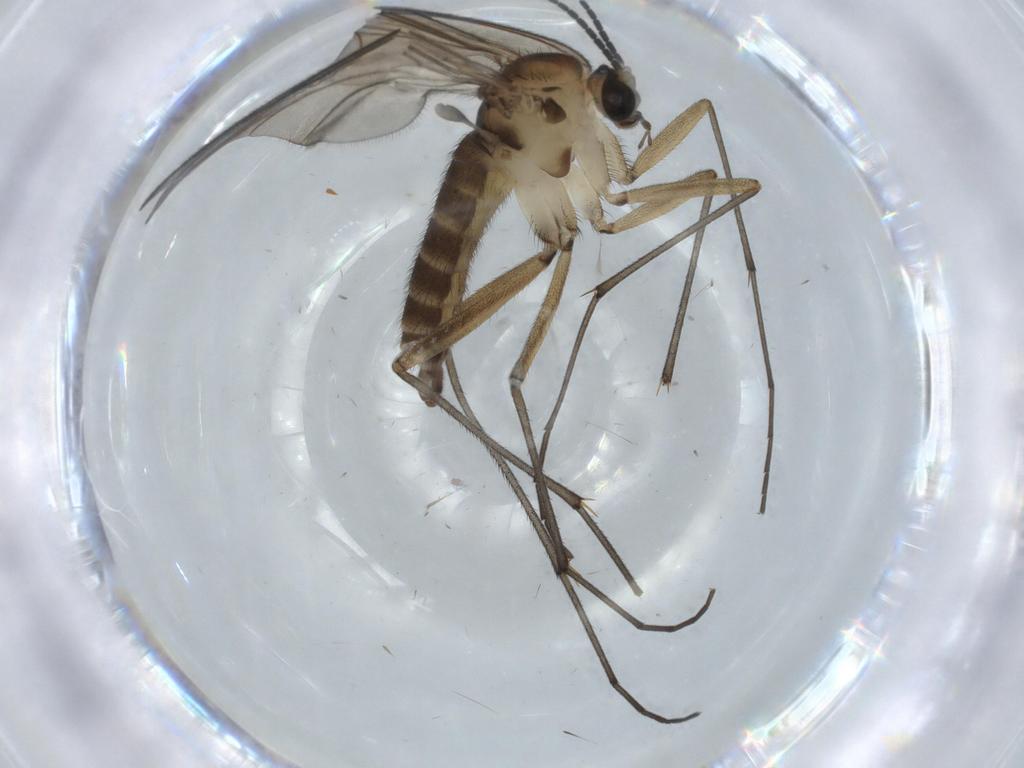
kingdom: Animalia
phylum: Arthropoda
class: Insecta
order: Diptera
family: Sciaridae
